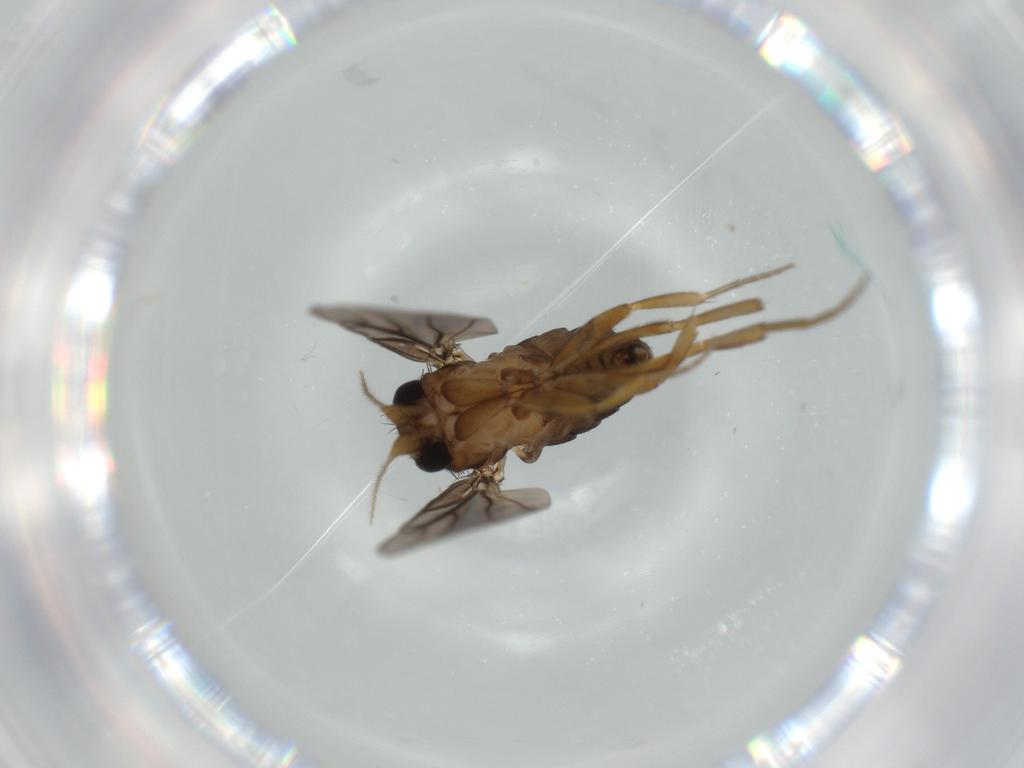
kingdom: Animalia
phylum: Arthropoda
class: Insecta
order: Diptera
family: Phoridae
